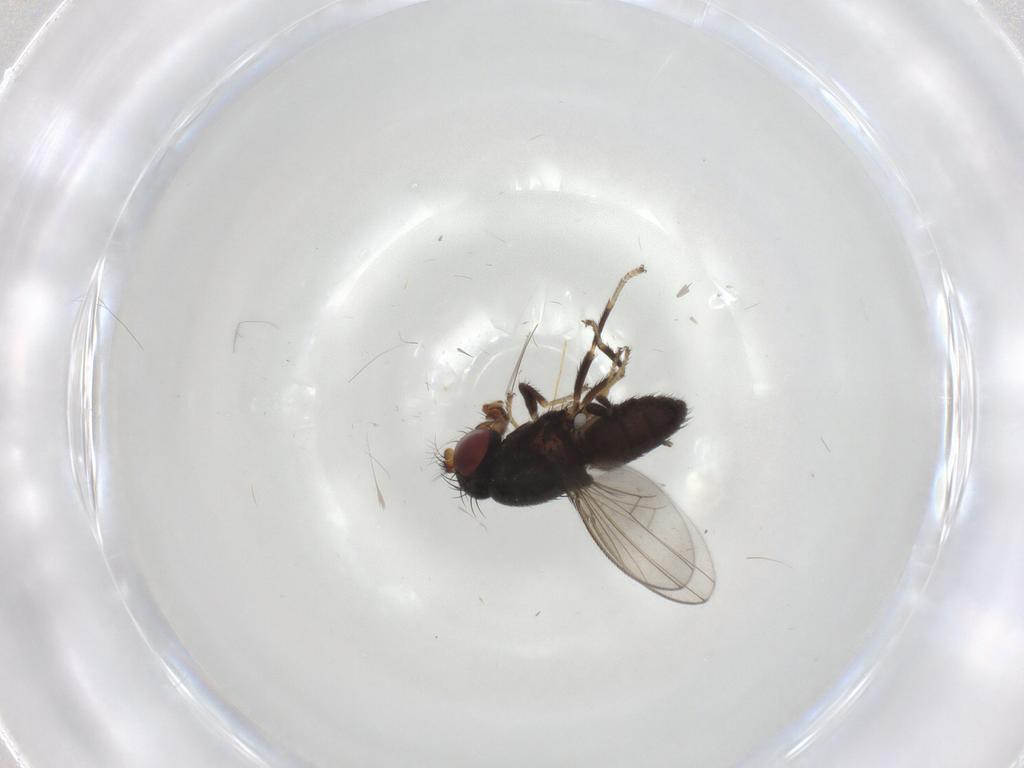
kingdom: Animalia
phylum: Arthropoda
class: Insecta
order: Diptera
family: Chironomidae
